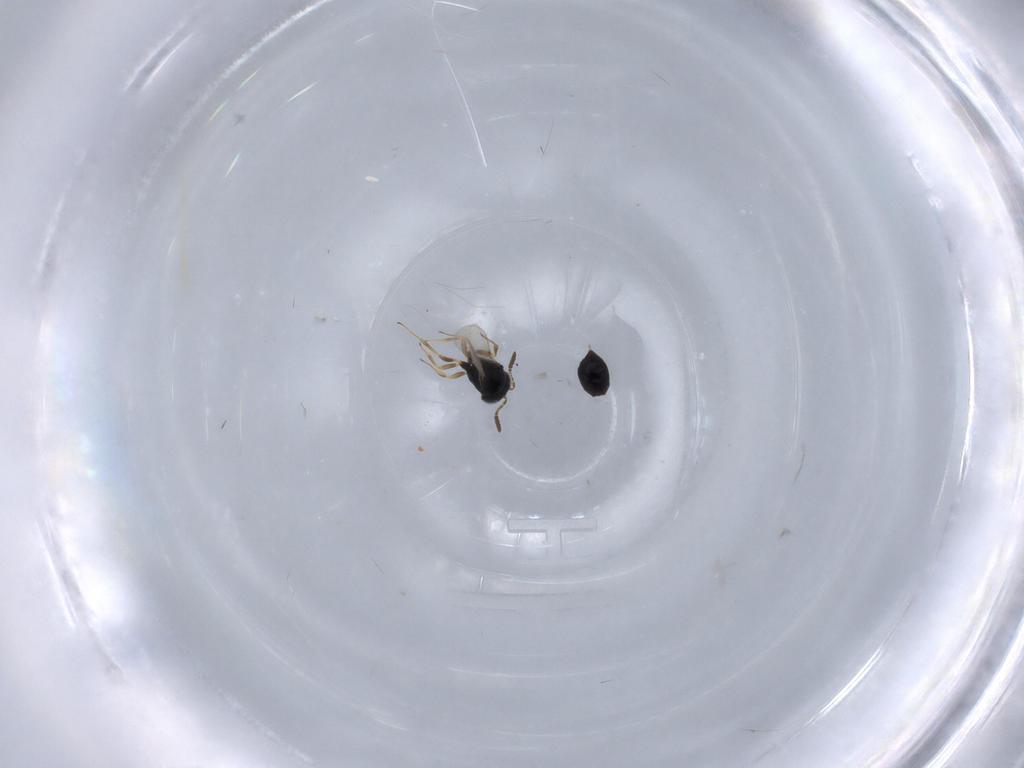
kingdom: Animalia
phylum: Arthropoda
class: Insecta
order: Hymenoptera
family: Scelionidae
